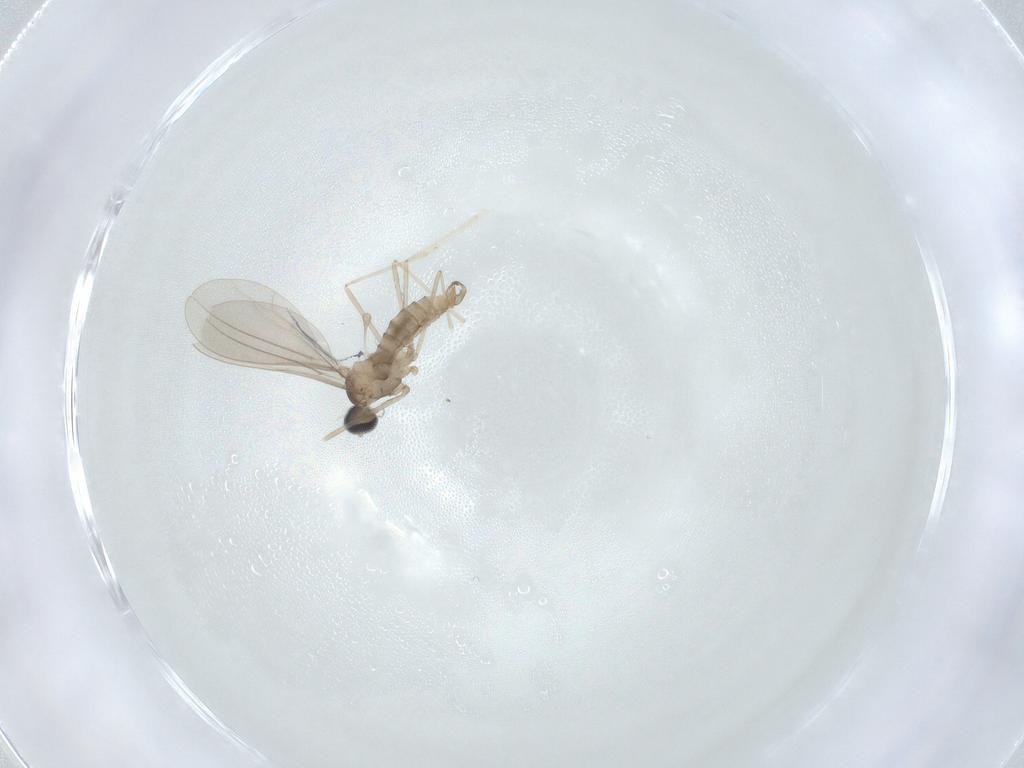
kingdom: Animalia
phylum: Arthropoda
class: Insecta
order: Diptera
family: Cecidomyiidae
